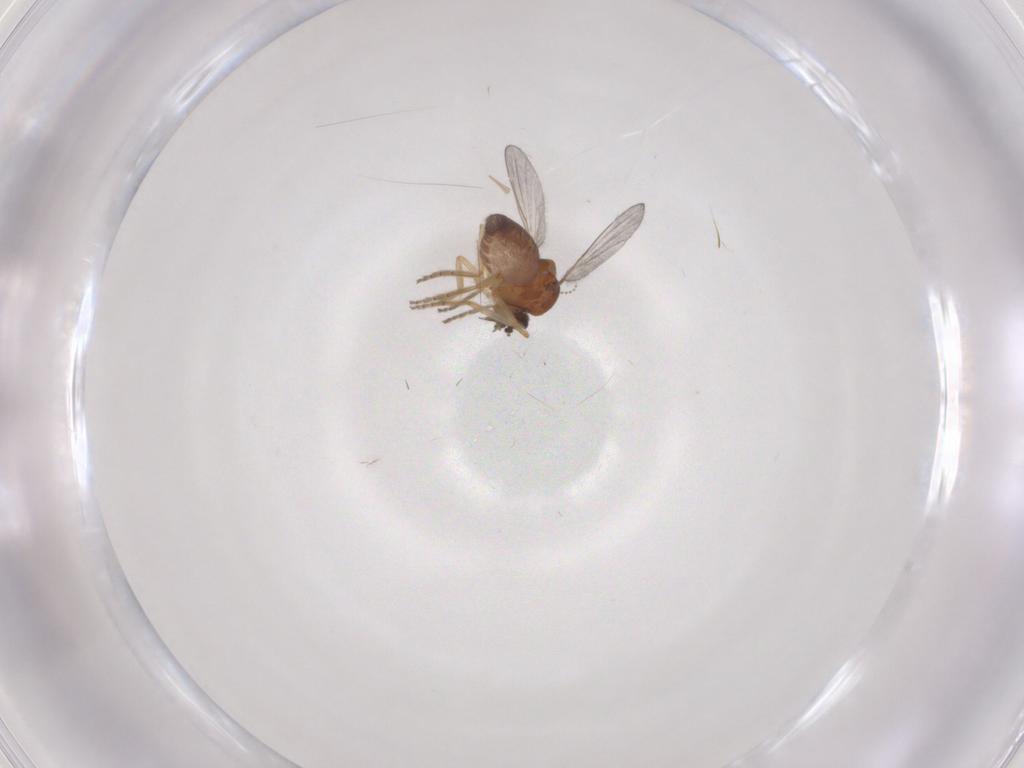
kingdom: Animalia
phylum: Arthropoda
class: Insecta
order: Diptera
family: Ceratopogonidae
